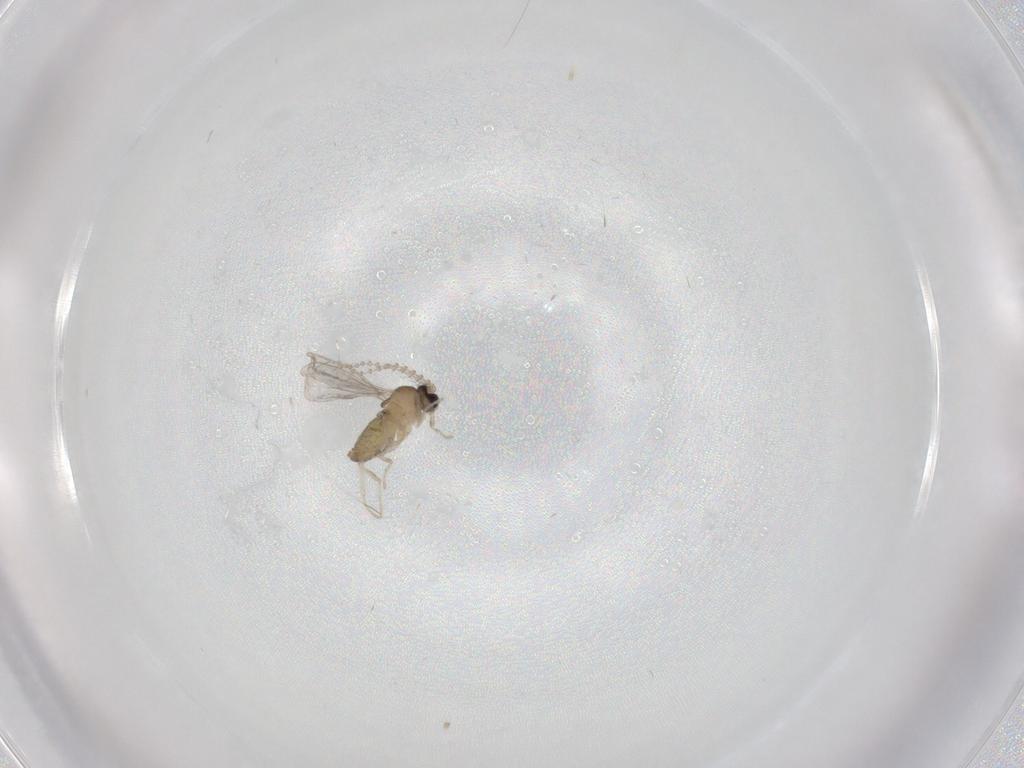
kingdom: Animalia
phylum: Arthropoda
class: Insecta
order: Diptera
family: Cecidomyiidae
